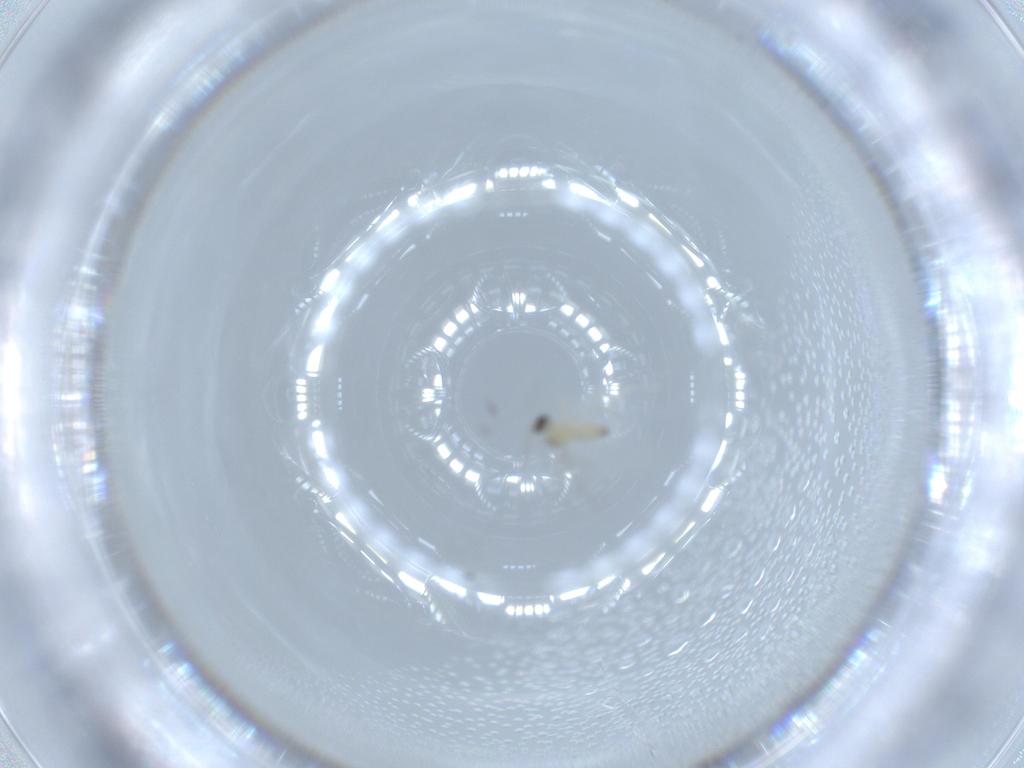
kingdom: Animalia
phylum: Arthropoda
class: Insecta
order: Diptera
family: Cecidomyiidae
